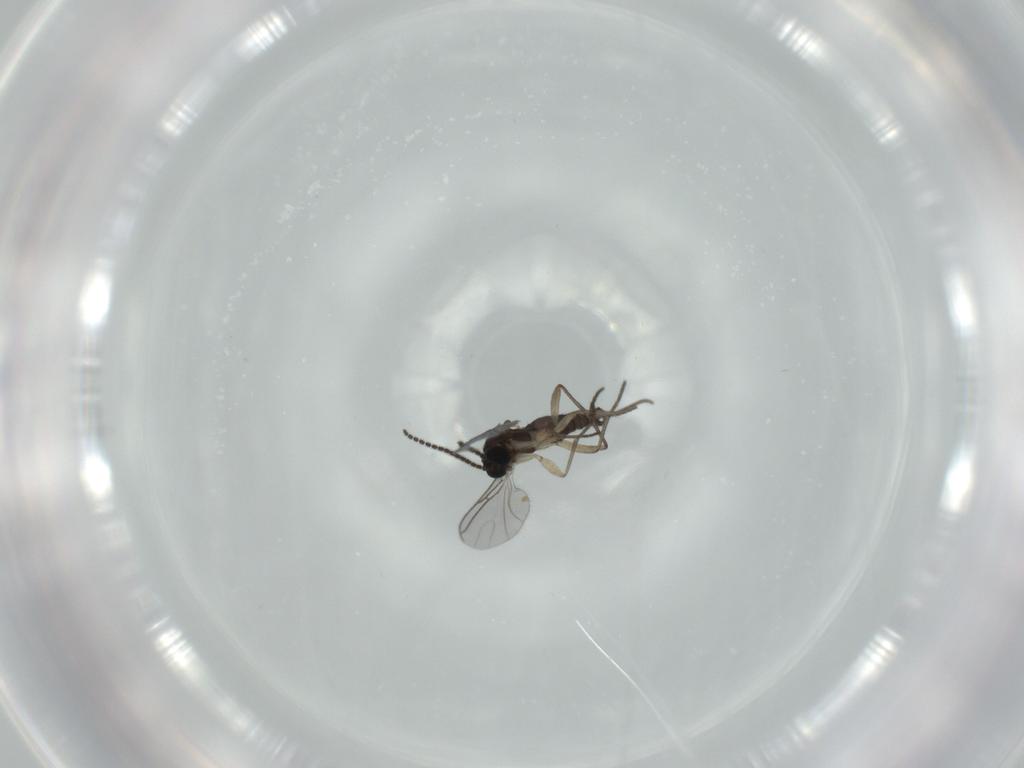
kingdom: Animalia
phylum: Arthropoda
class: Insecta
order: Diptera
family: Sciaridae
